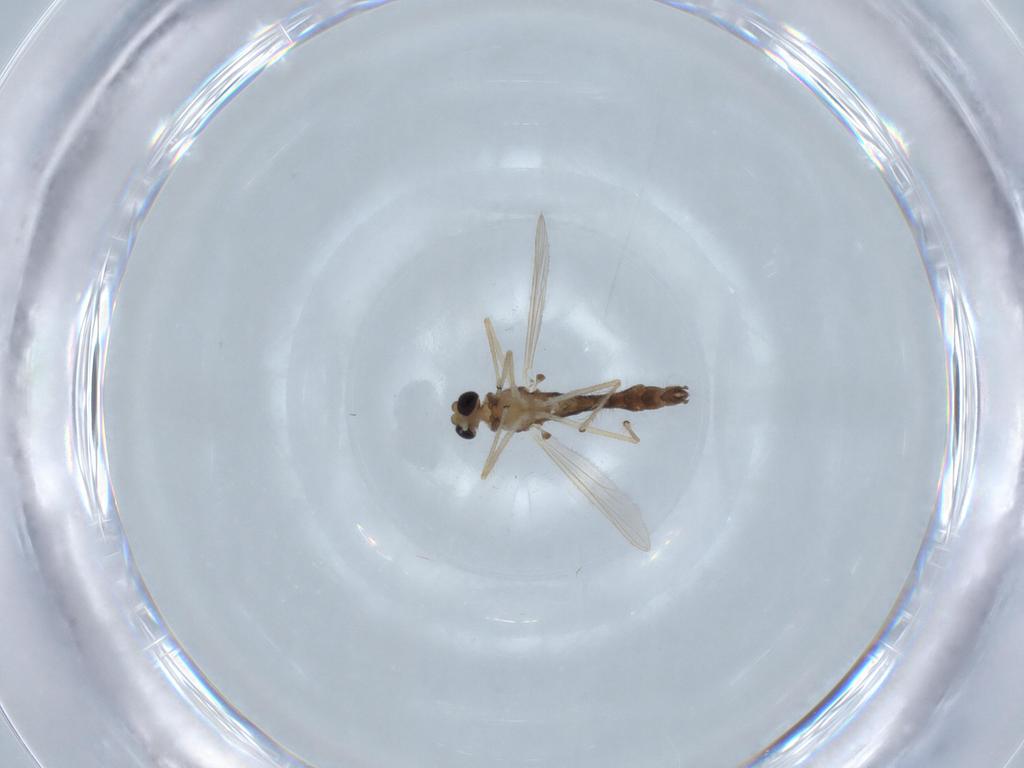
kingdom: Animalia
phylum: Arthropoda
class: Insecta
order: Diptera
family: Chironomidae
